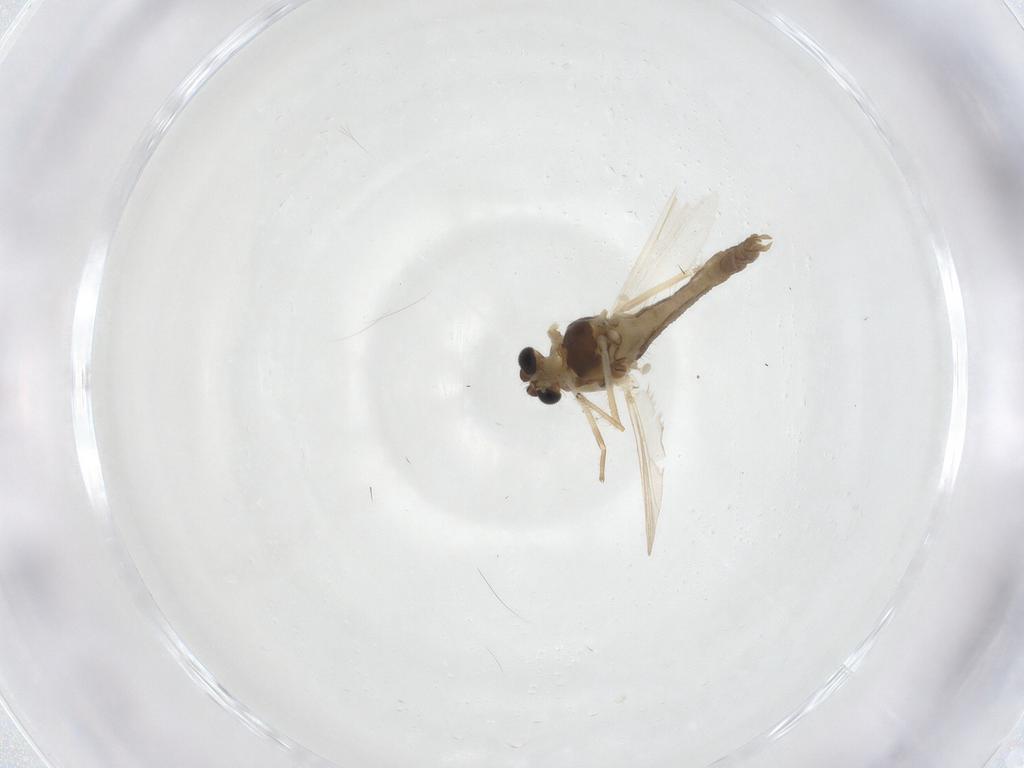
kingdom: Animalia
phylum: Arthropoda
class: Insecta
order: Diptera
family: Chironomidae
